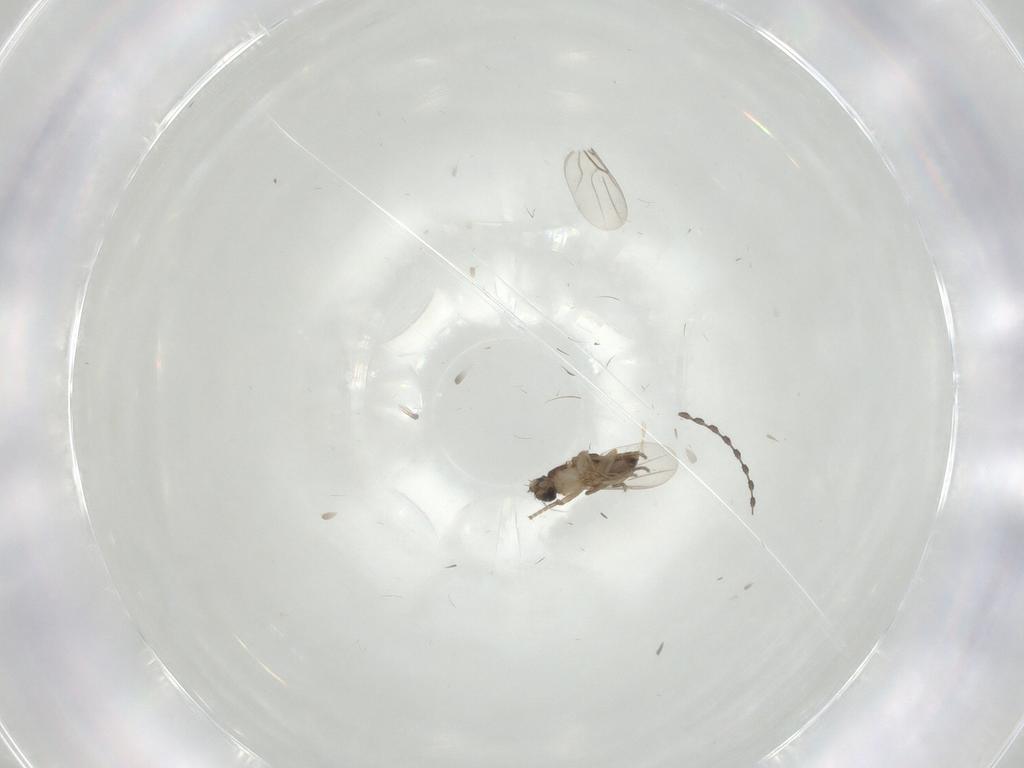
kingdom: Animalia
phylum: Arthropoda
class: Insecta
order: Diptera
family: Phoridae
